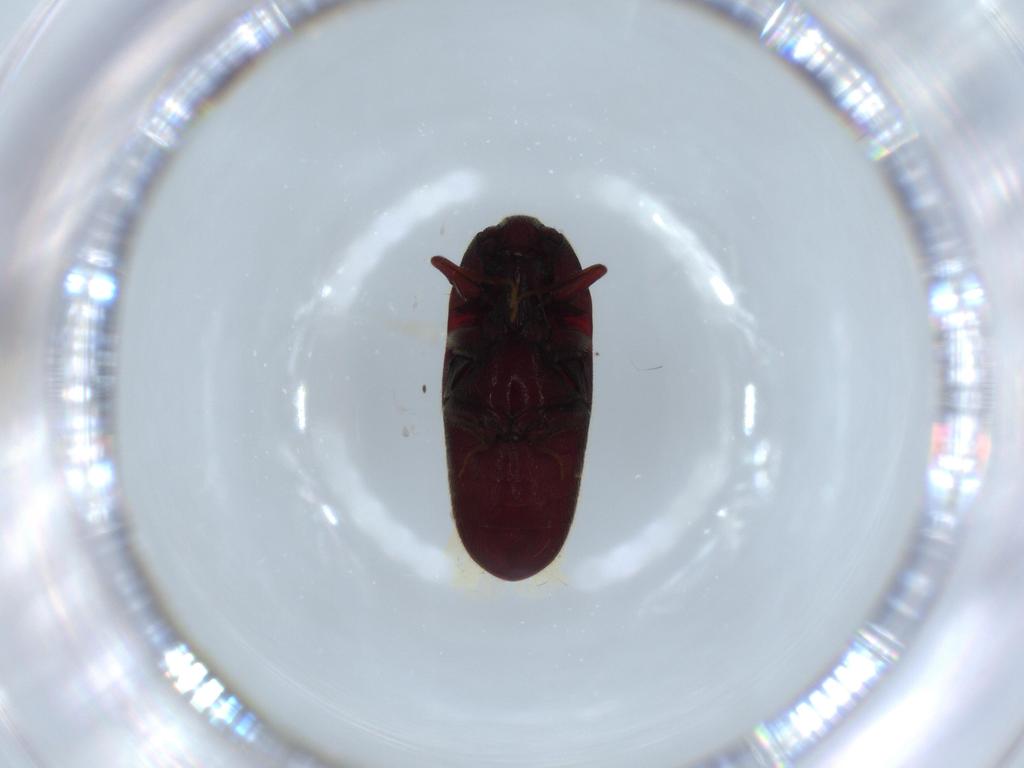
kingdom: Animalia
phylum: Arthropoda
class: Insecta
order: Coleoptera
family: Throscidae
